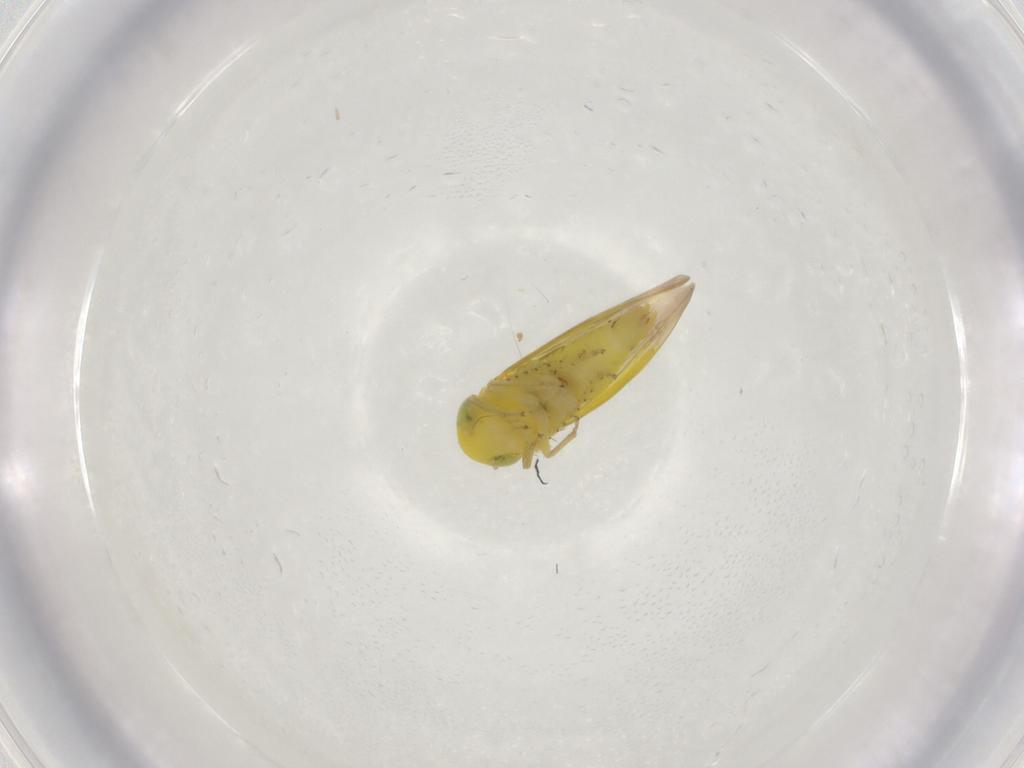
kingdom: Animalia
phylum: Arthropoda
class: Insecta
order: Hemiptera
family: Cicadellidae
